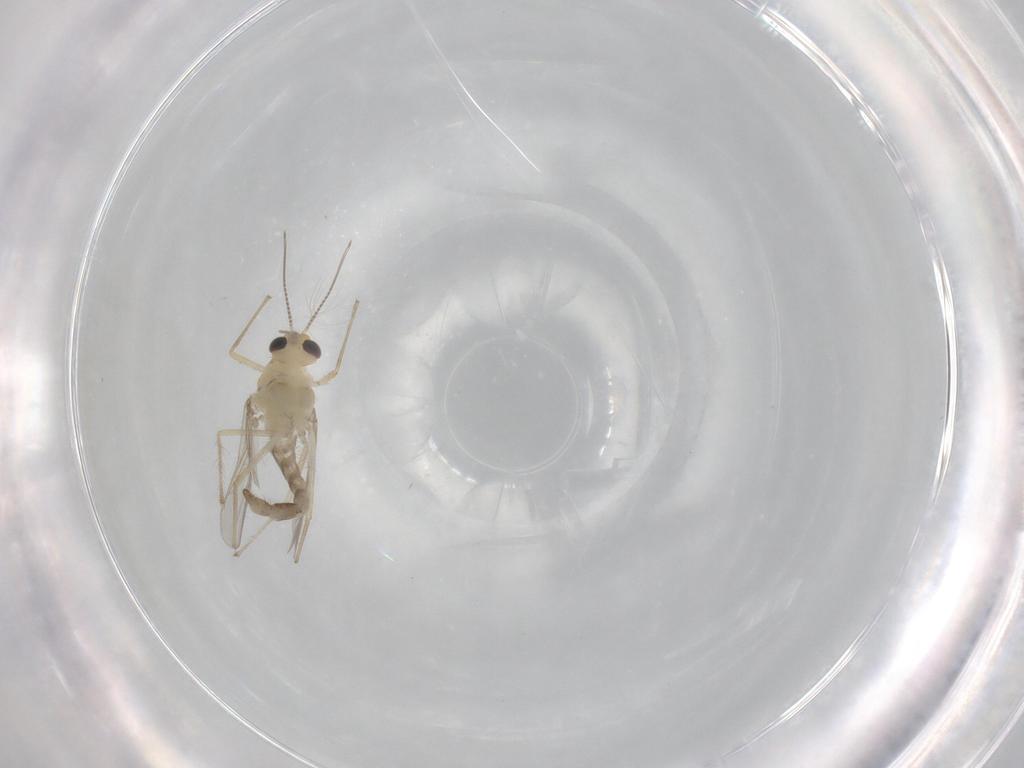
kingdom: Animalia
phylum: Arthropoda
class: Insecta
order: Diptera
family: Chironomidae
